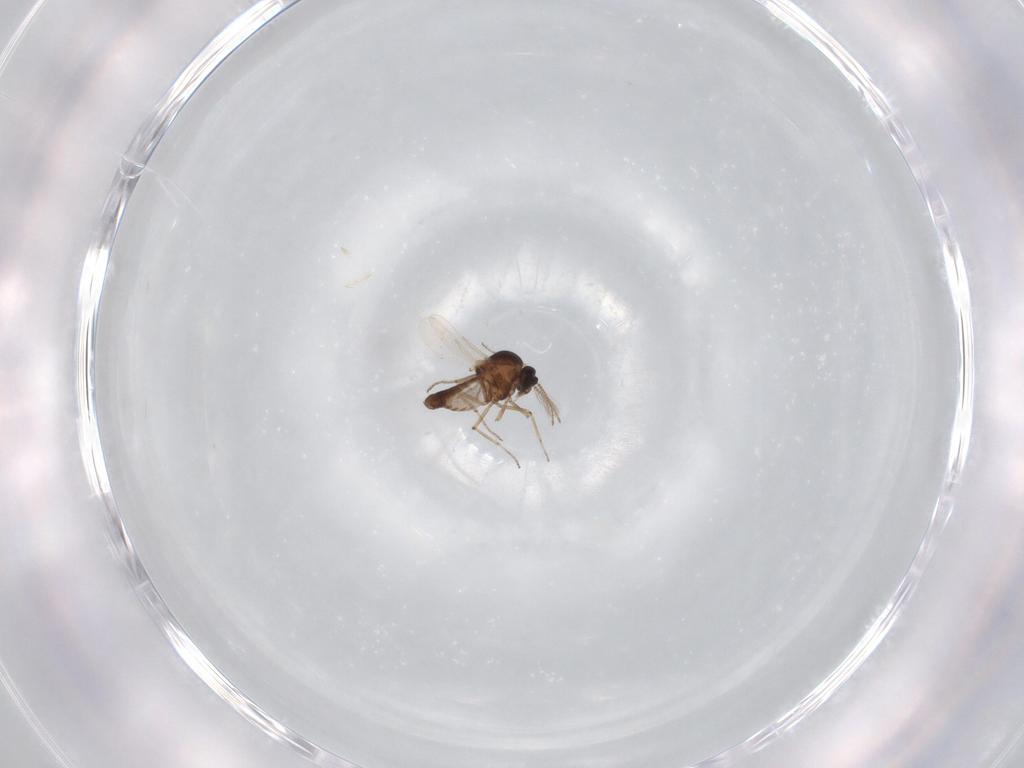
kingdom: Animalia
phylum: Arthropoda
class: Insecta
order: Diptera
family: Ceratopogonidae
